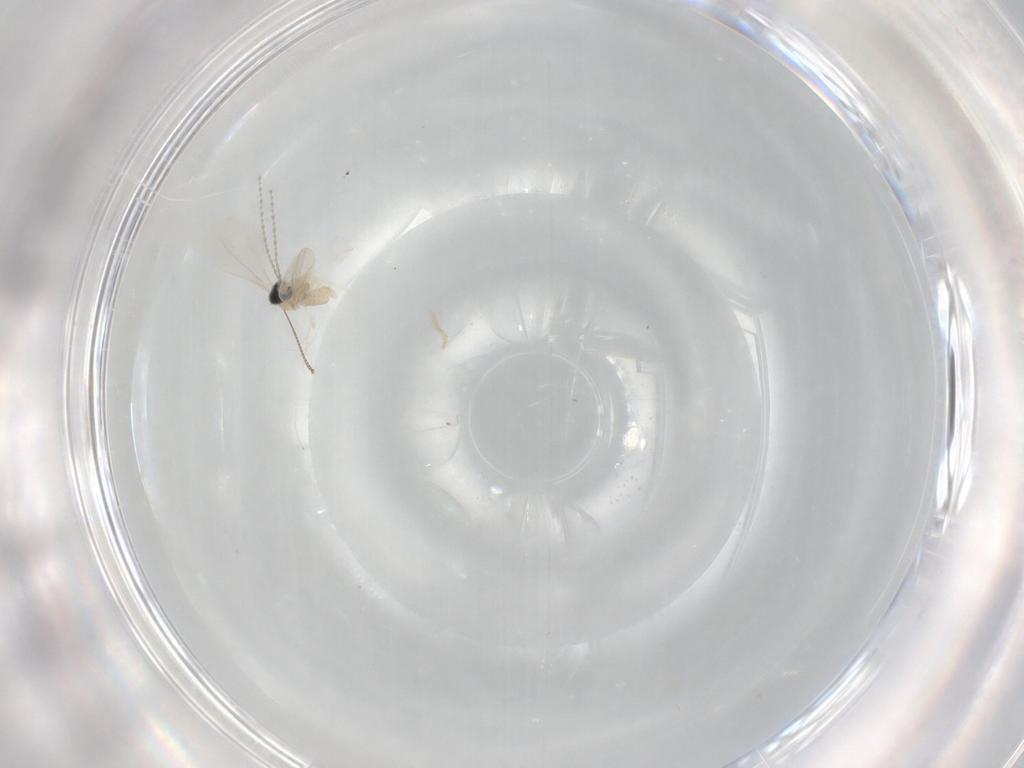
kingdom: Animalia
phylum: Arthropoda
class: Insecta
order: Diptera
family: Chironomidae
